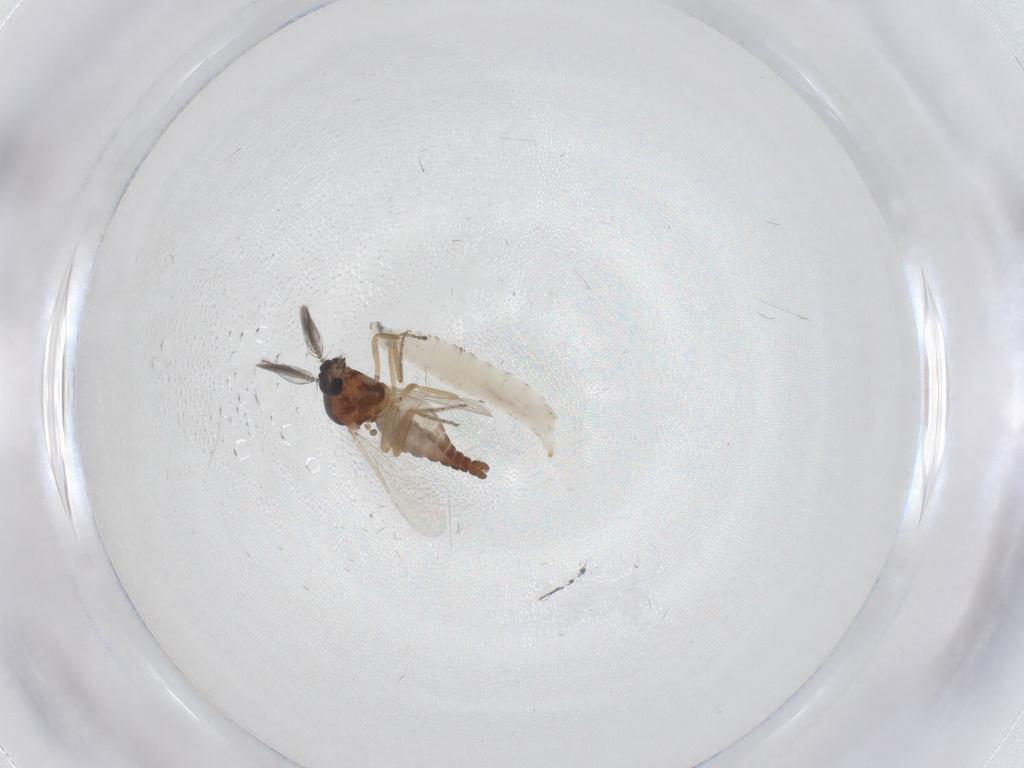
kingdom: Animalia
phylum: Arthropoda
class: Insecta
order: Diptera
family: Ceratopogonidae
